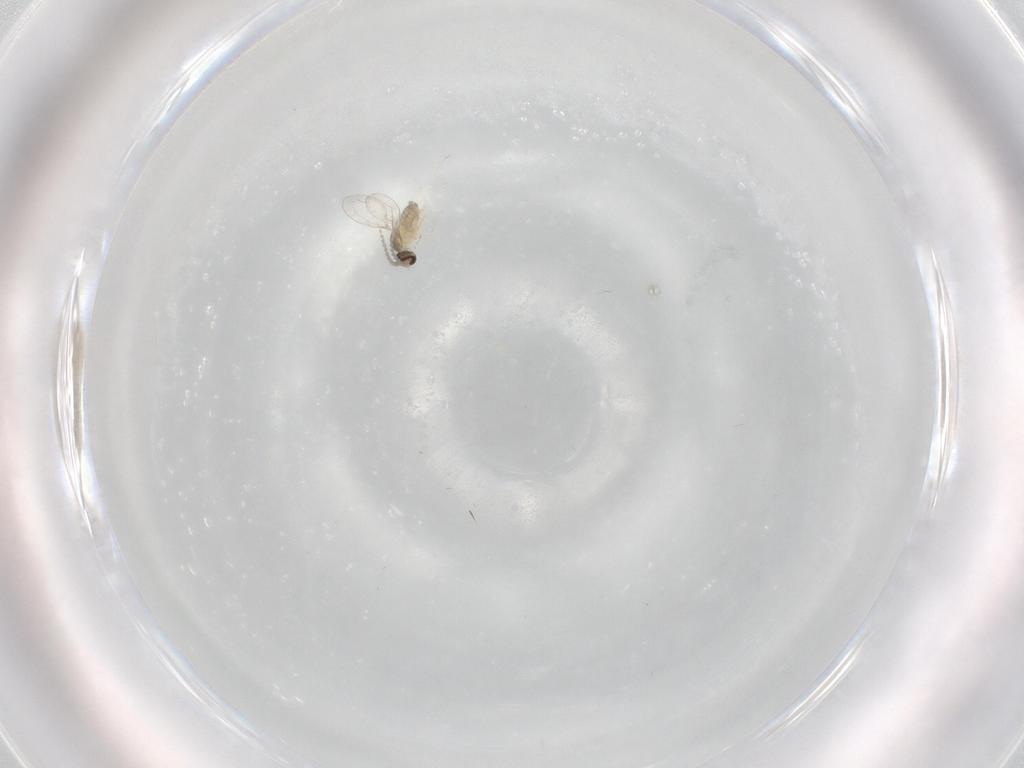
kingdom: Animalia
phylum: Arthropoda
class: Insecta
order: Diptera
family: Cecidomyiidae
